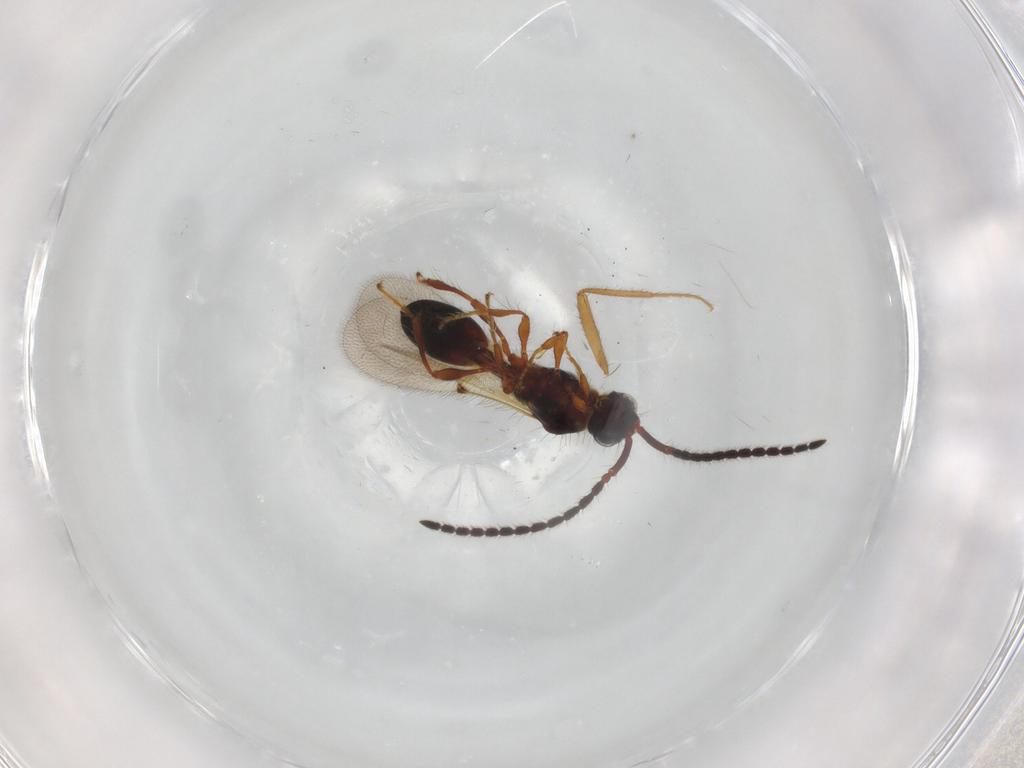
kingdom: Animalia
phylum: Arthropoda
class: Insecta
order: Hymenoptera
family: Diapriidae
